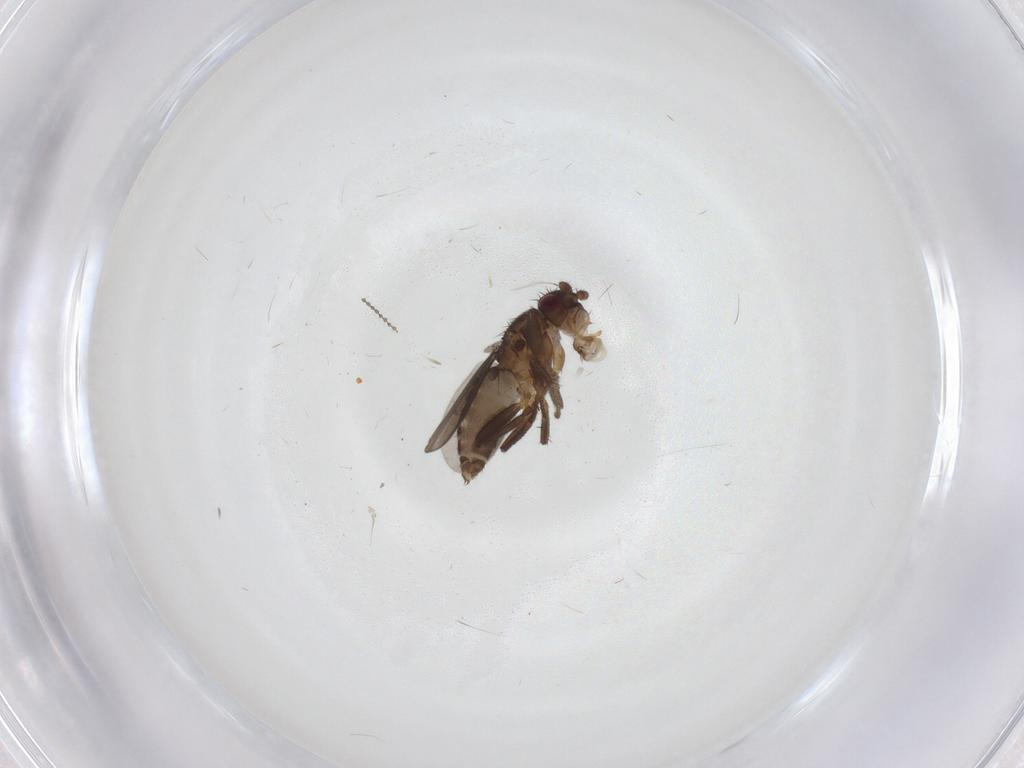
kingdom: Animalia
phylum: Arthropoda
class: Insecta
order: Diptera
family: Sphaeroceridae
